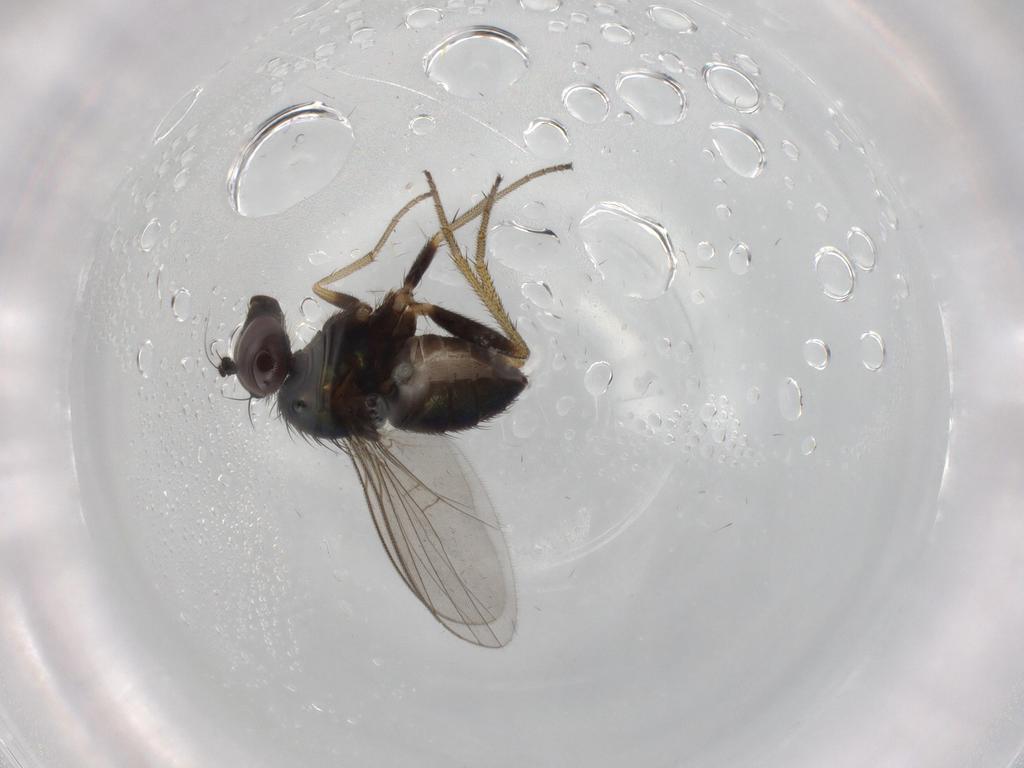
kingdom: Animalia
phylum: Arthropoda
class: Insecta
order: Diptera
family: Dolichopodidae
